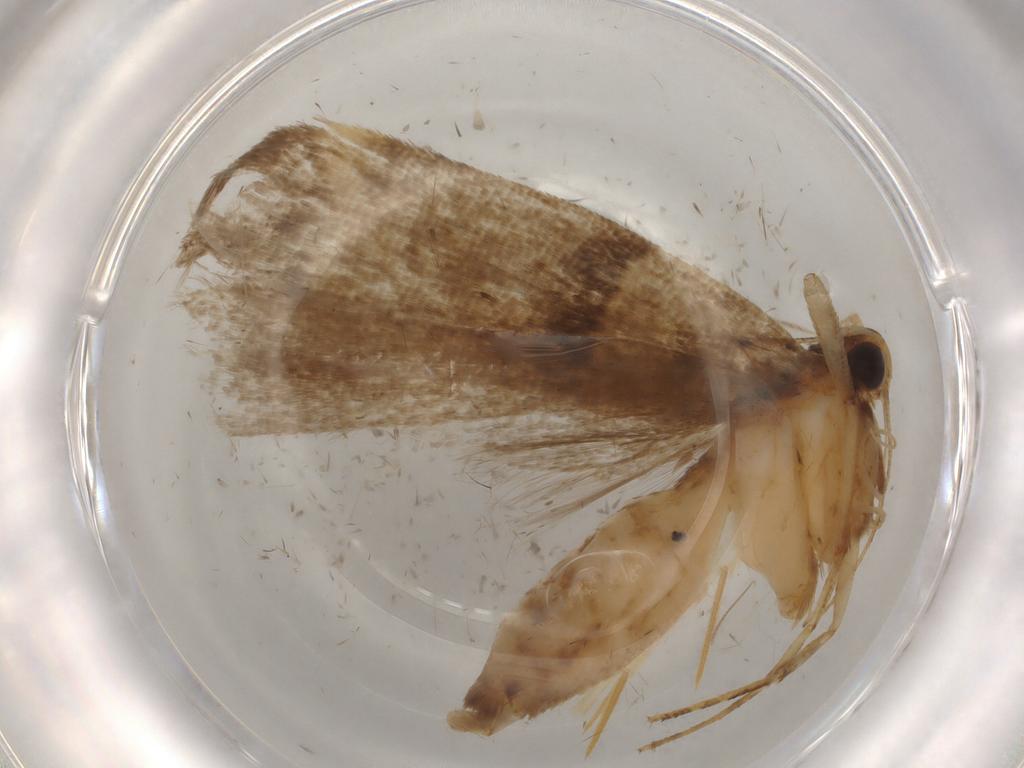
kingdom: Animalia
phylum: Arthropoda
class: Insecta
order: Lepidoptera
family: Gelechiidae
